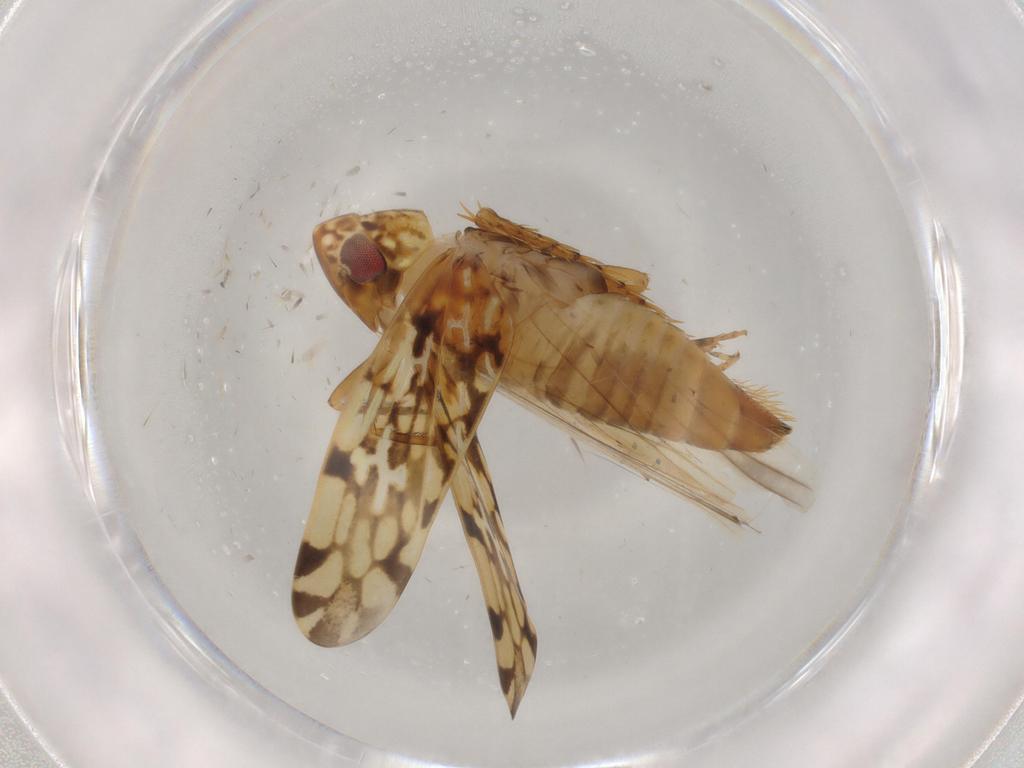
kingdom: Animalia
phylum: Arthropoda
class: Insecta
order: Hemiptera
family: Cicadellidae
